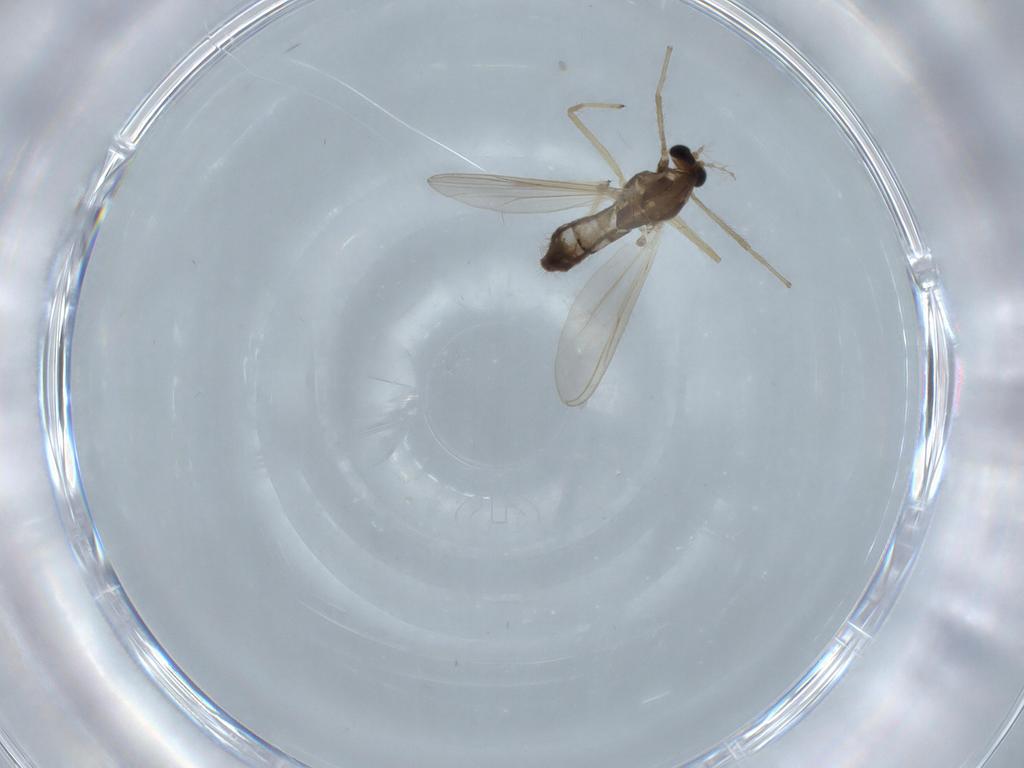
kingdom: Animalia
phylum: Arthropoda
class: Insecta
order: Diptera
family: Chironomidae
